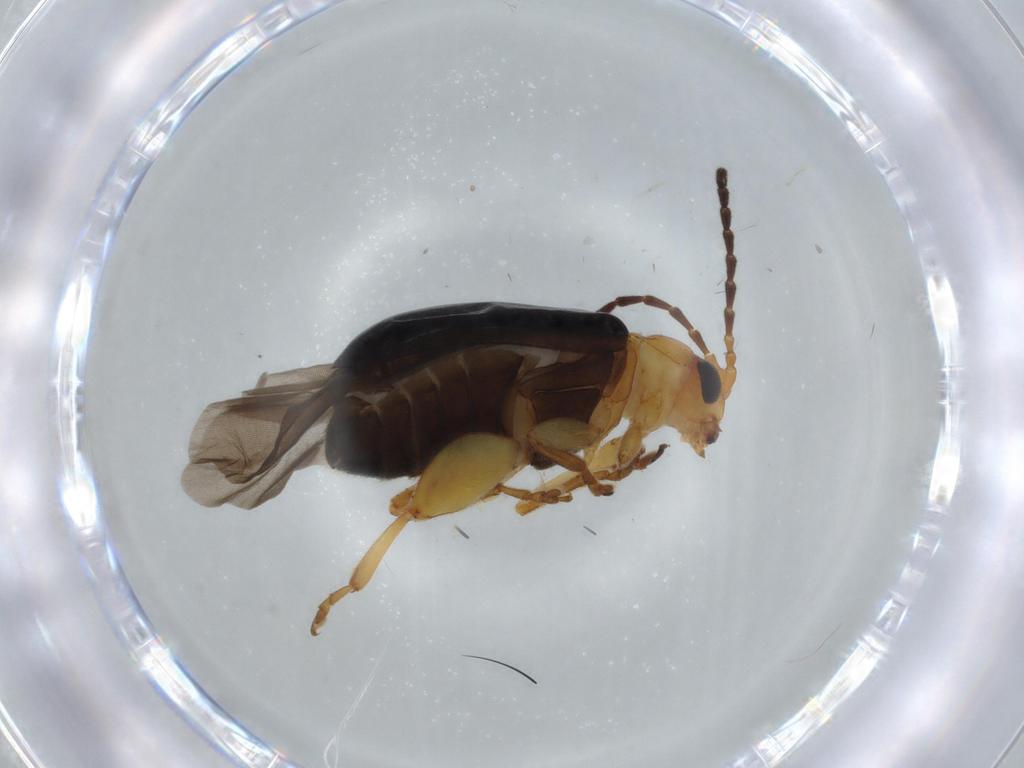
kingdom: Animalia
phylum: Arthropoda
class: Insecta
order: Coleoptera
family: Chrysomelidae
